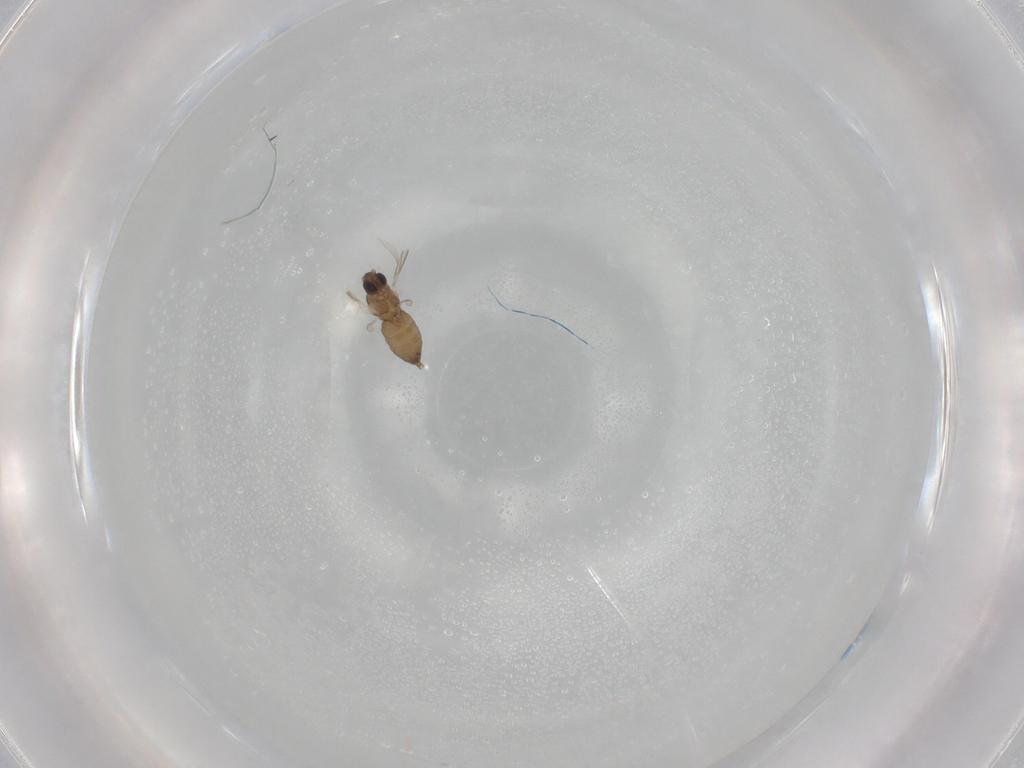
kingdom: Animalia
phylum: Arthropoda
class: Insecta
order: Diptera
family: Cecidomyiidae
